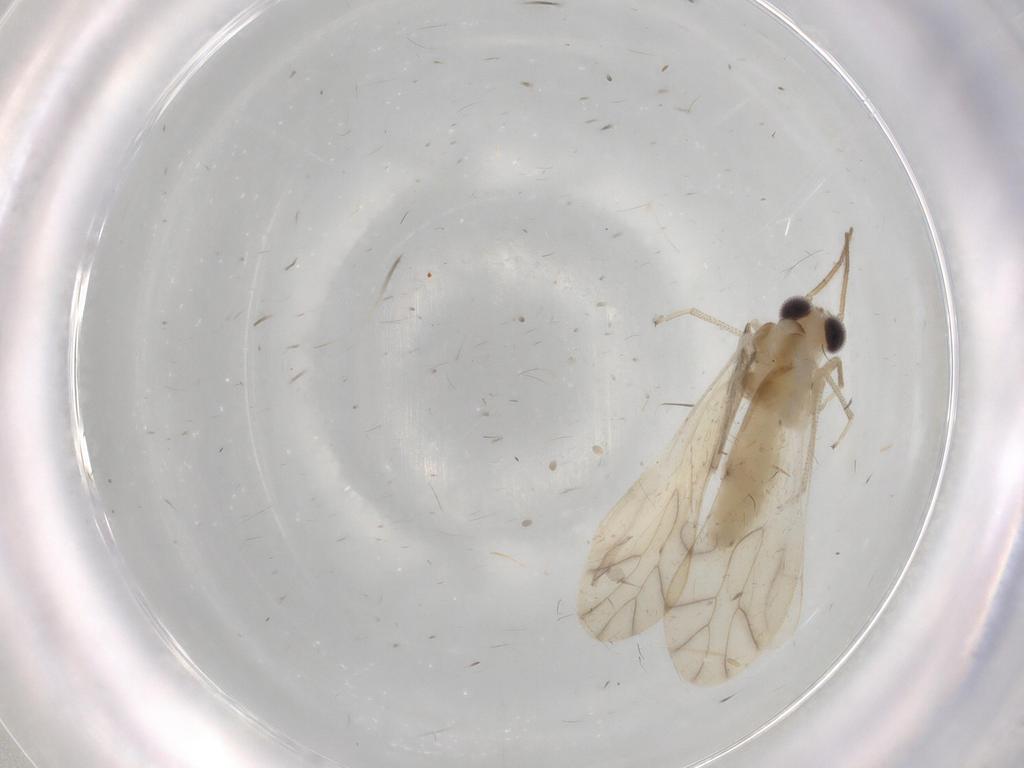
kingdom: Animalia
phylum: Arthropoda
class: Insecta
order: Psocodea
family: Caeciliusidae
